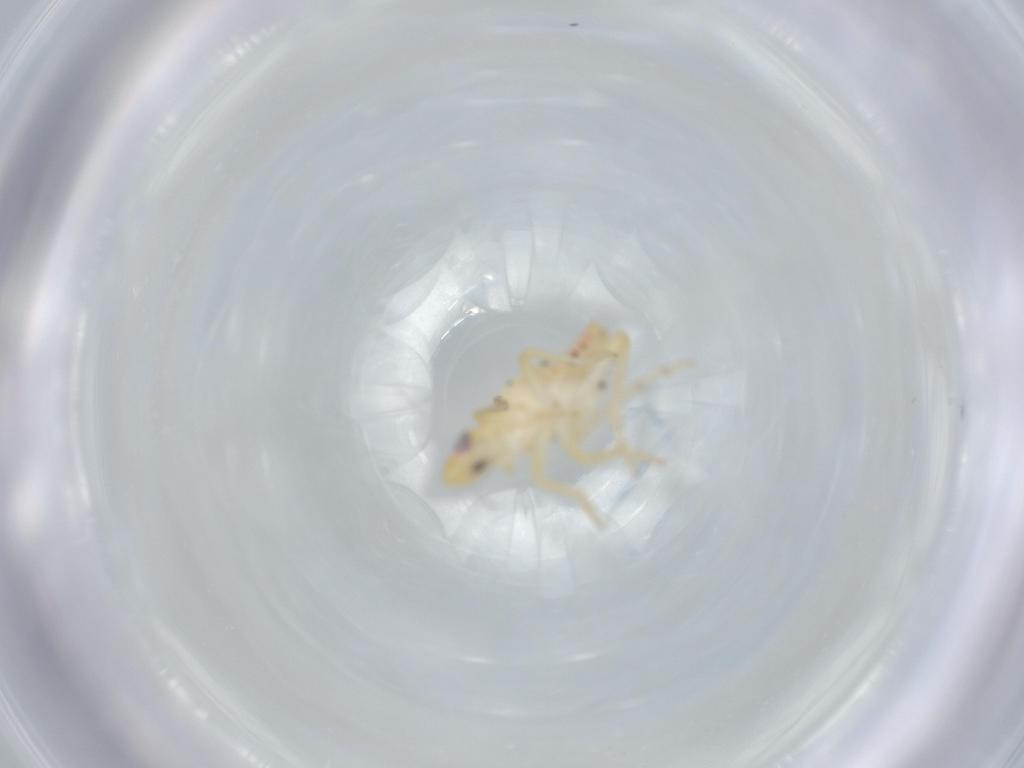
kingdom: Animalia
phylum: Arthropoda
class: Insecta
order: Hemiptera
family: Tropiduchidae
